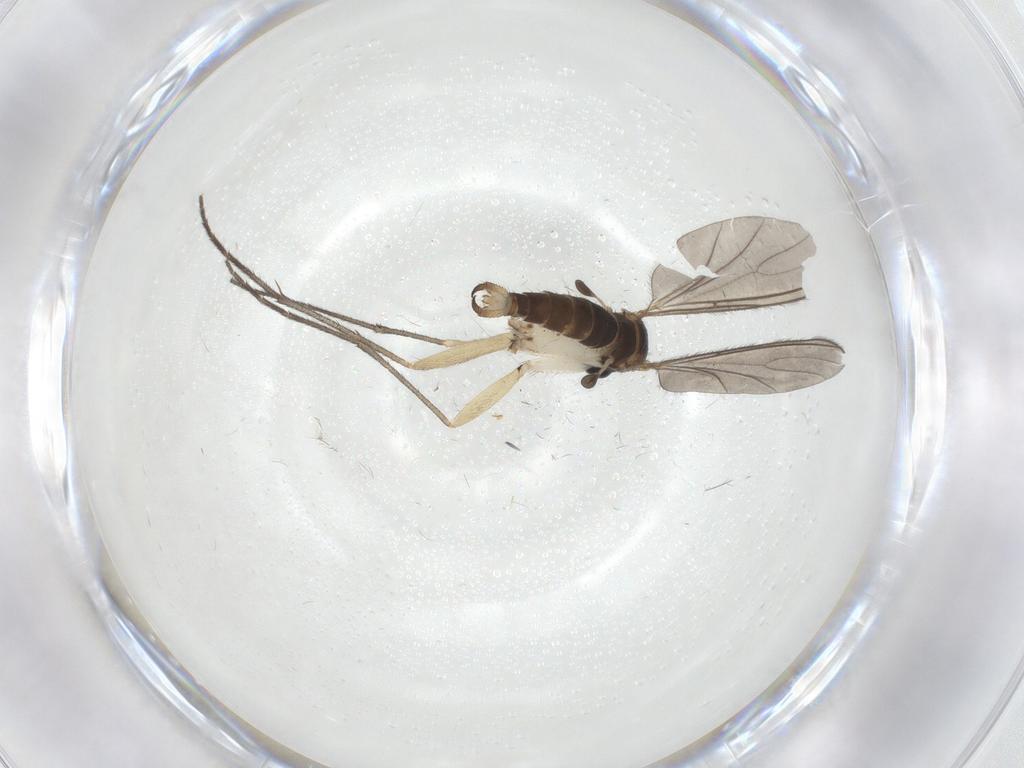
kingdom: Animalia
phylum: Arthropoda
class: Insecta
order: Diptera
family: Sciaridae
